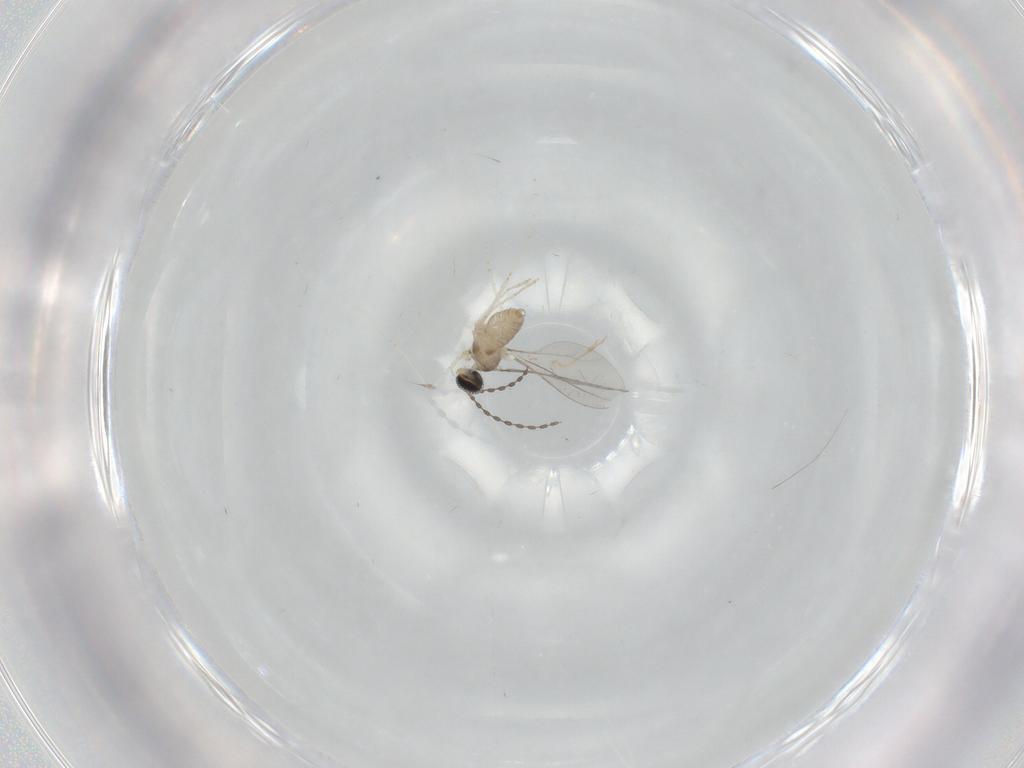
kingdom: Animalia
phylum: Arthropoda
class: Insecta
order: Diptera
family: Cecidomyiidae
